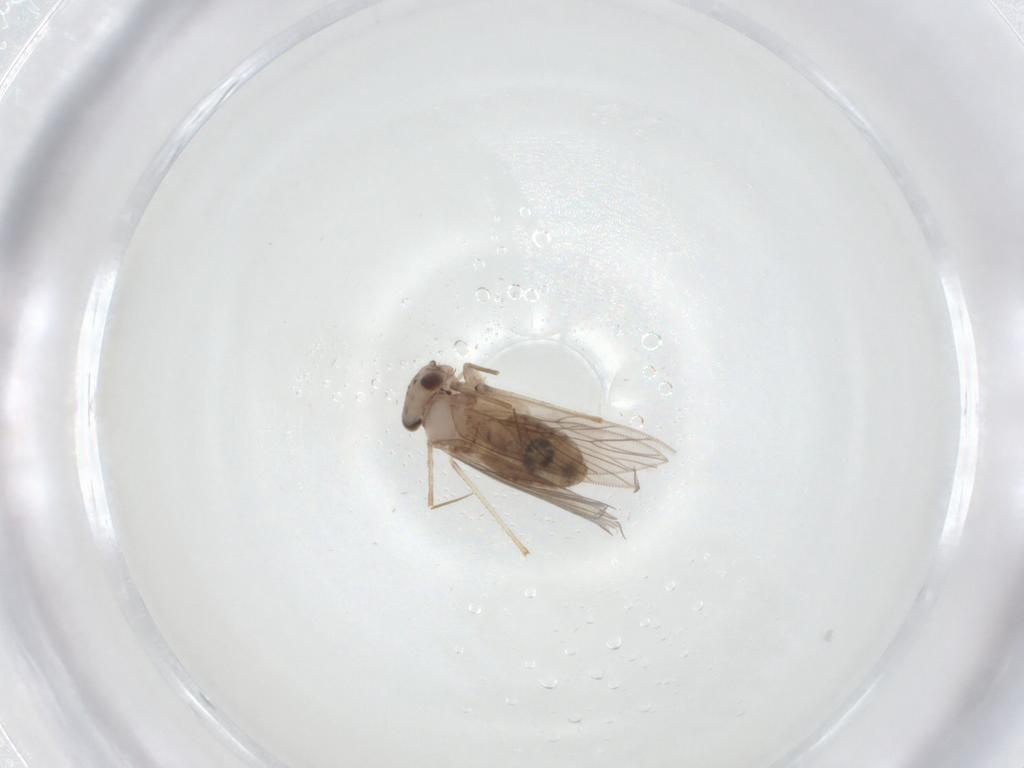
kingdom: Animalia
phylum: Arthropoda
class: Insecta
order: Psocodea
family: Lepidopsocidae
